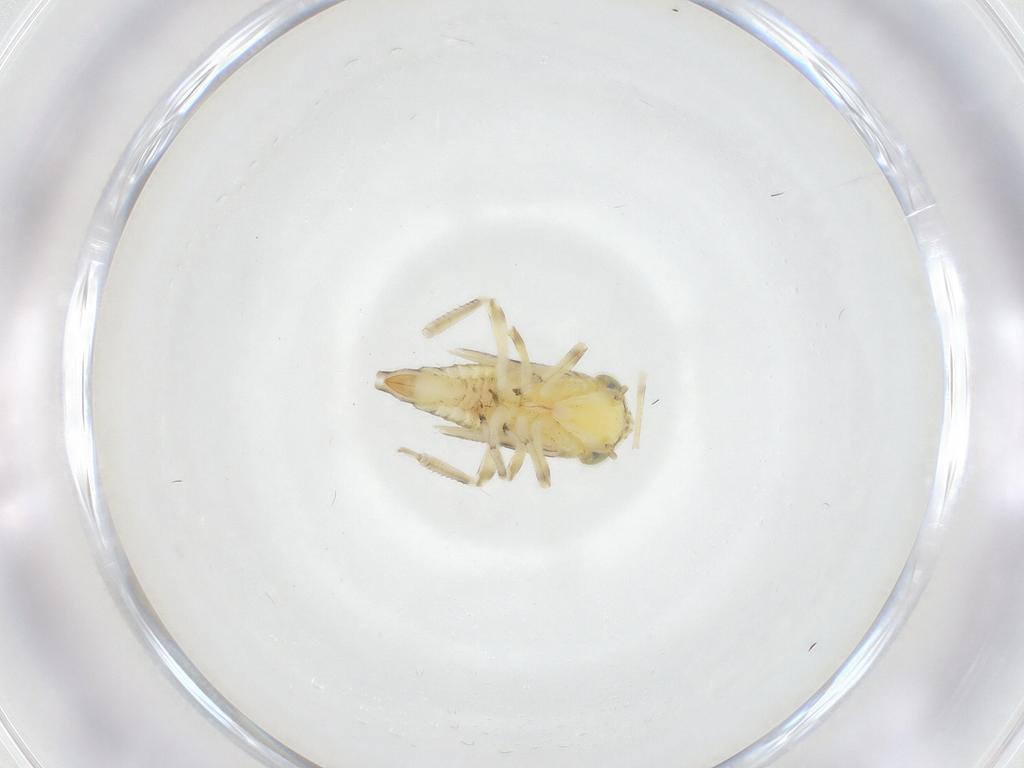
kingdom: Animalia
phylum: Arthropoda
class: Insecta
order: Hemiptera
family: Cicadellidae
